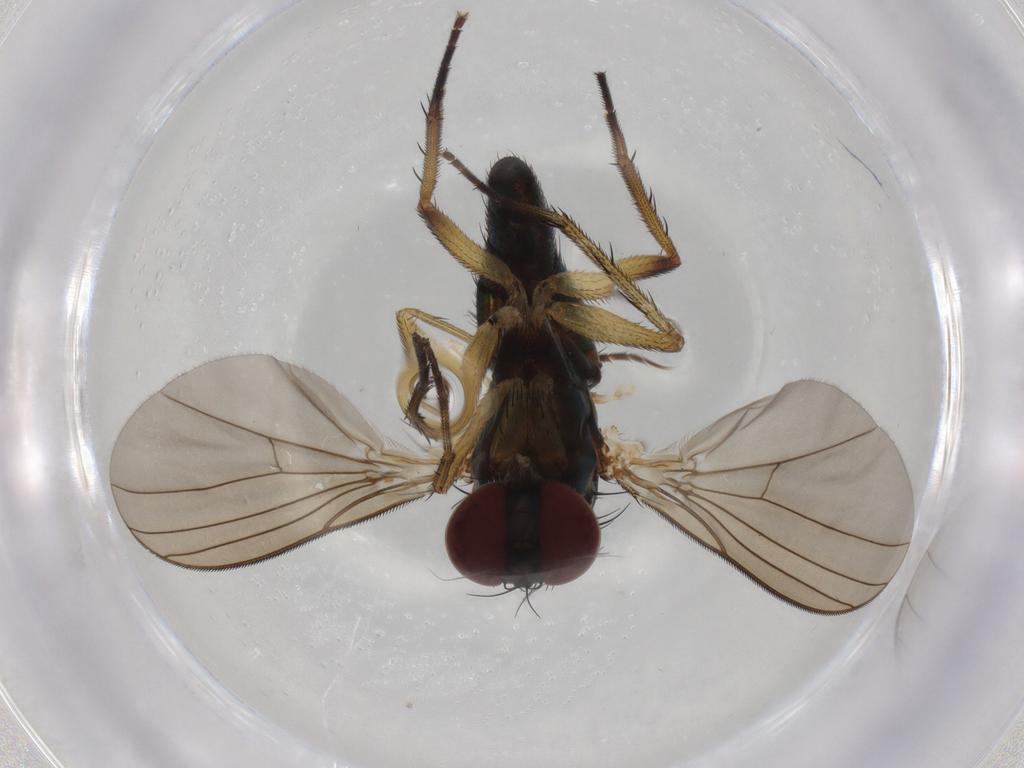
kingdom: Animalia
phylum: Arthropoda
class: Insecta
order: Diptera
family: Dolichopodidae
